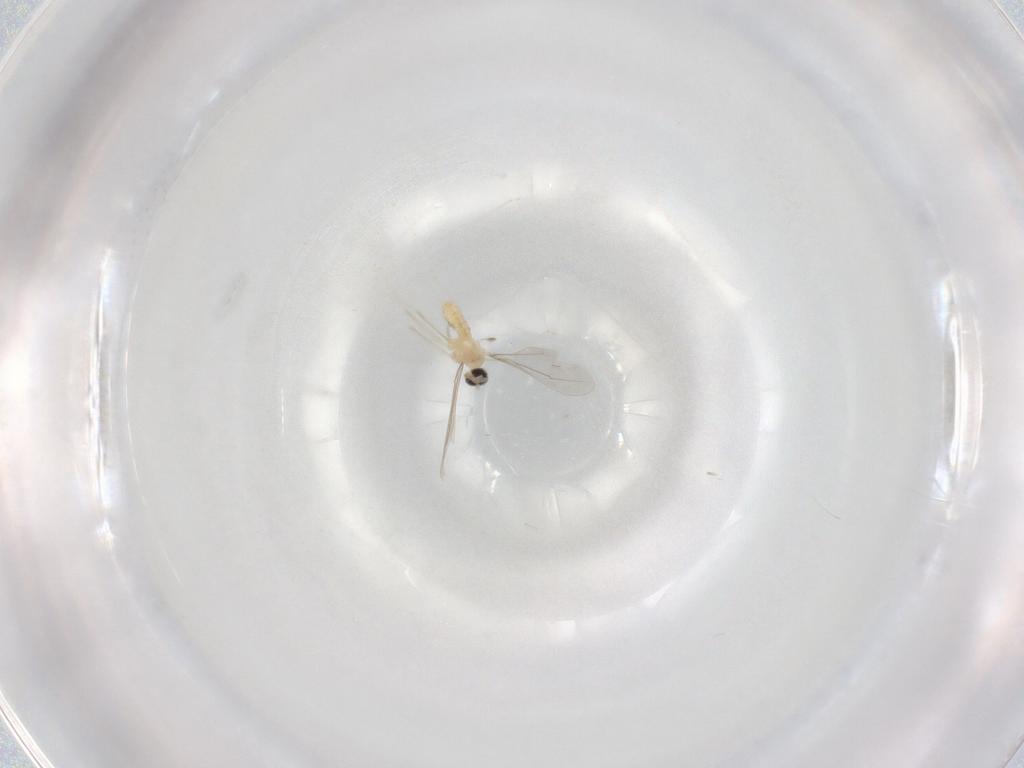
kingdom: Animalia
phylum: Arthropoda
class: Insecta
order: Diptera
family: Cecidomyiidae
